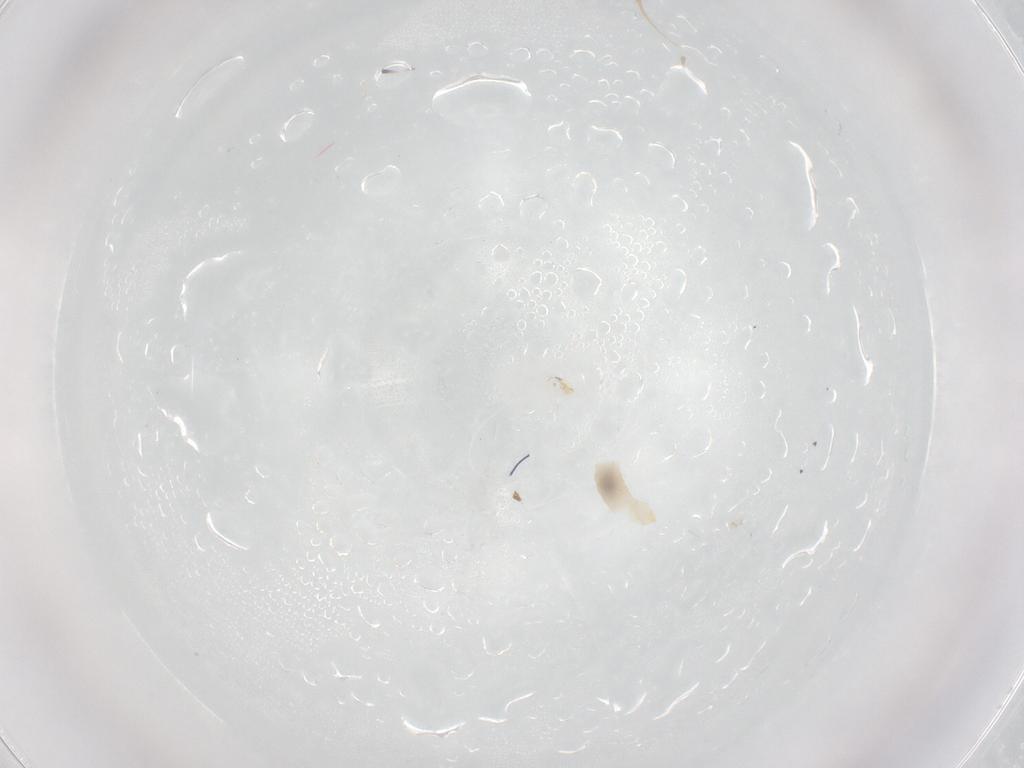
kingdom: Animalia
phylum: Arthropoda
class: Insecta
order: Diptera
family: Cecidomyiidae
